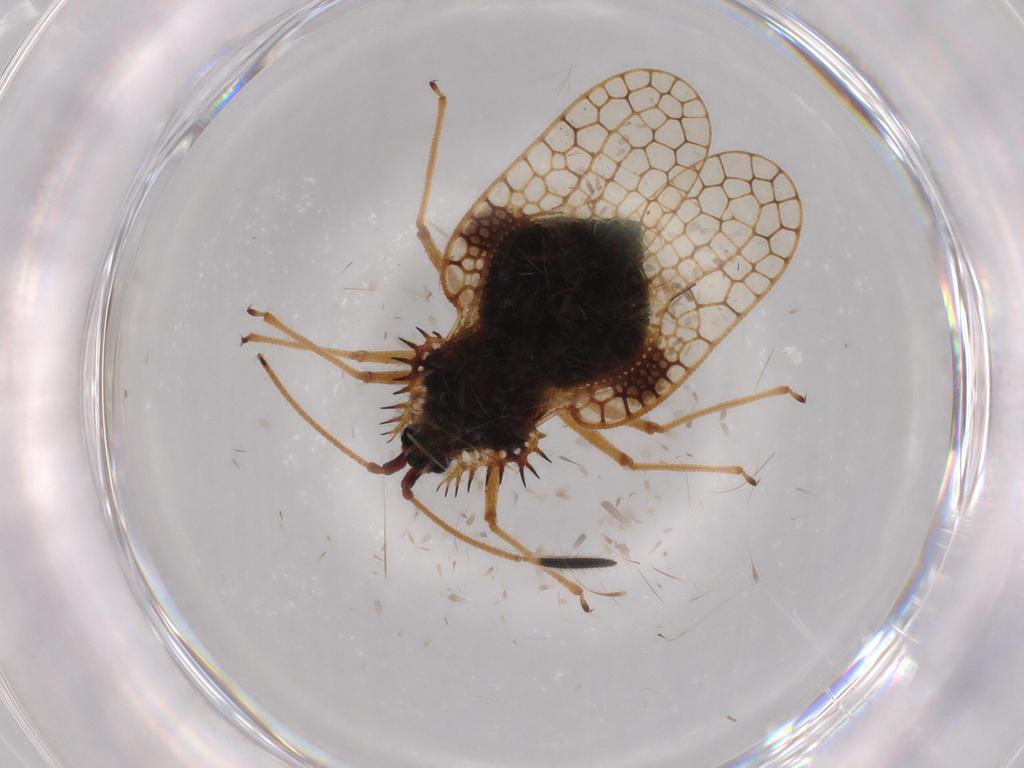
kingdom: Animalia
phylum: Arthropoda
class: Insecta
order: Hemiptera
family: Tingidae
